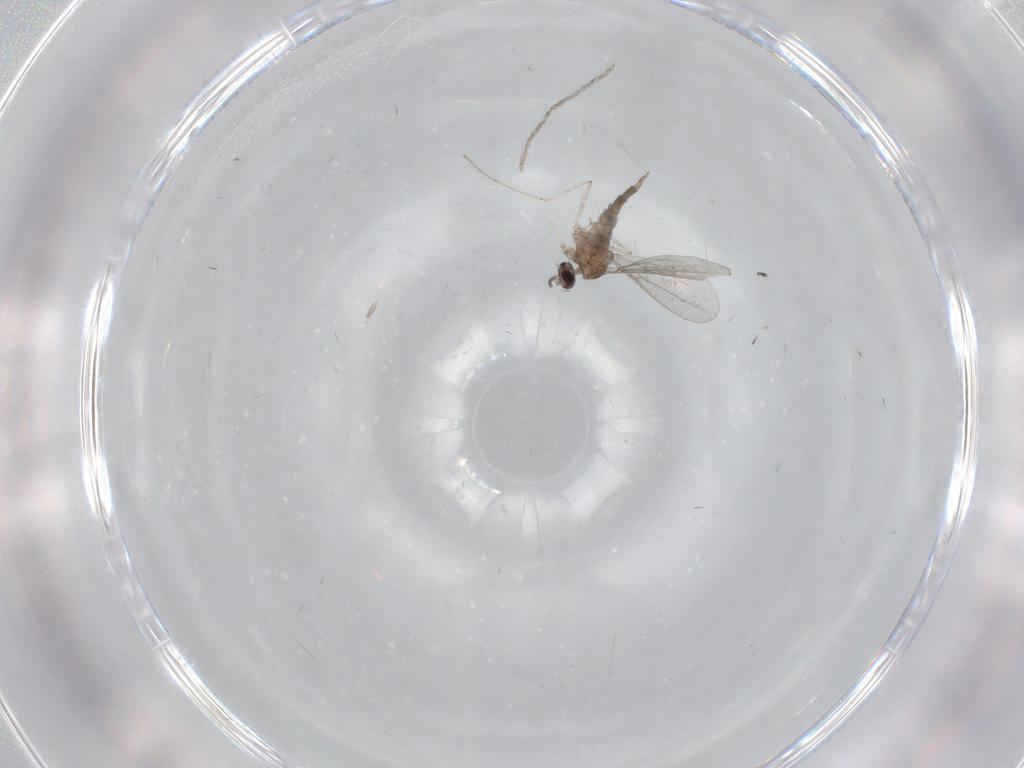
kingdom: Animalia
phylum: Arthropoda
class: Insecta
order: Diptera
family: Cecidomyiidae
